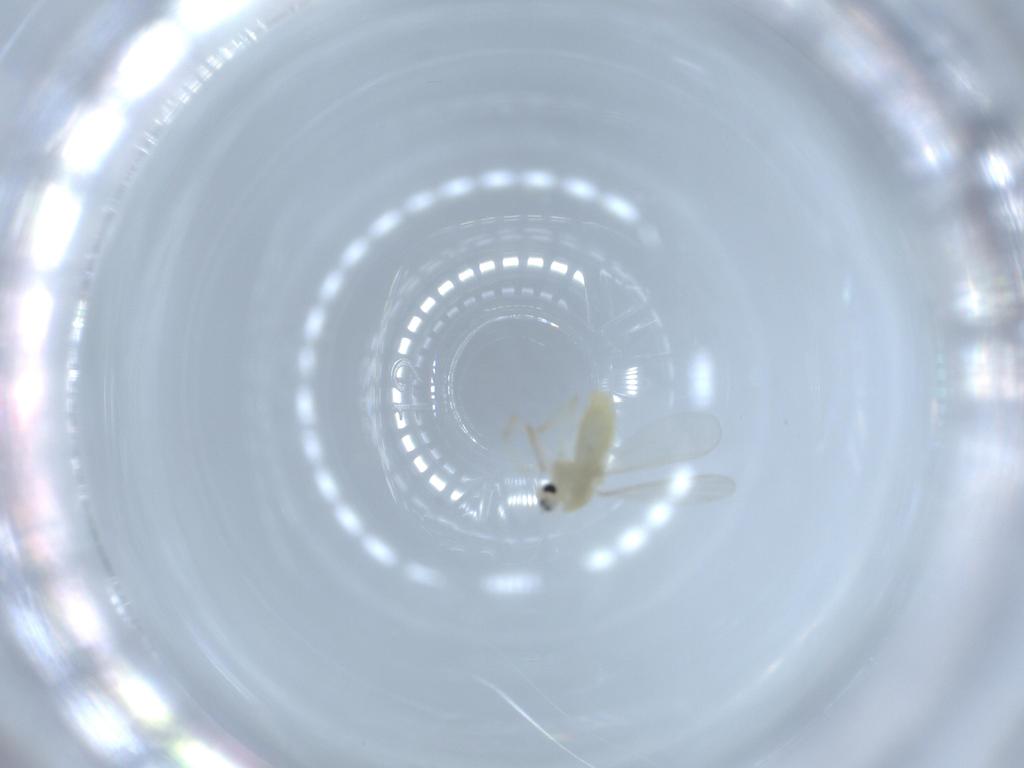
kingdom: Animalia
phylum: Arthropoda
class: Insecta
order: Diptera
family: Chironomidae
